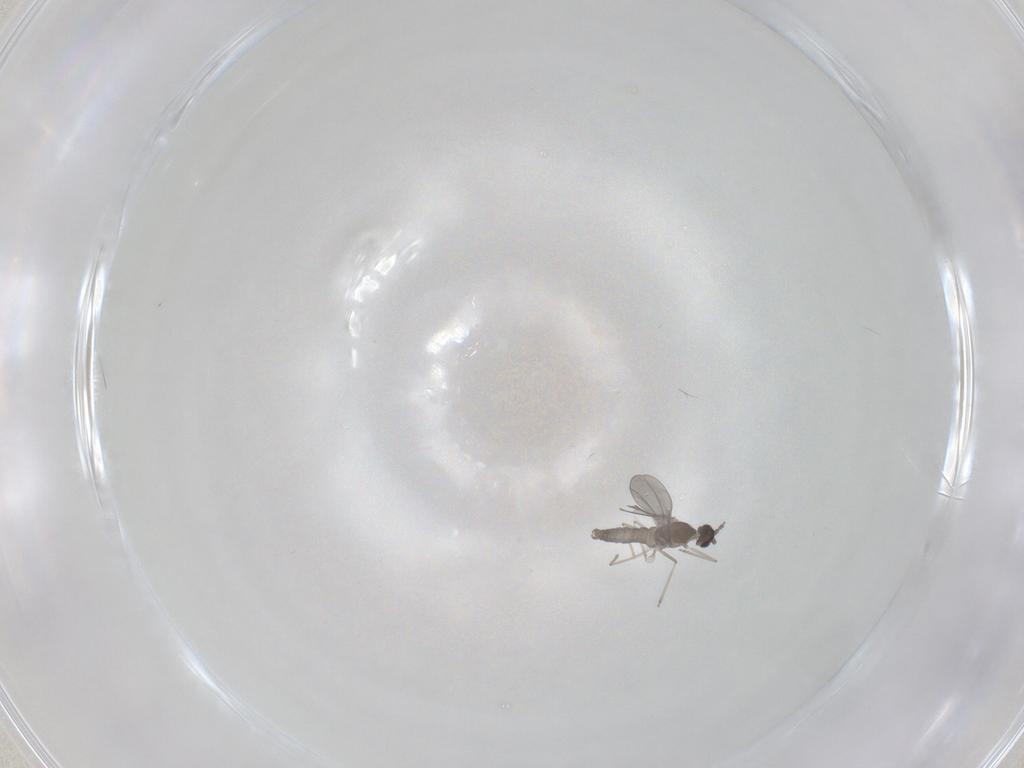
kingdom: Animalia
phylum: Arthropoda
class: Insecta
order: Diptera
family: Cecidomyiidae
